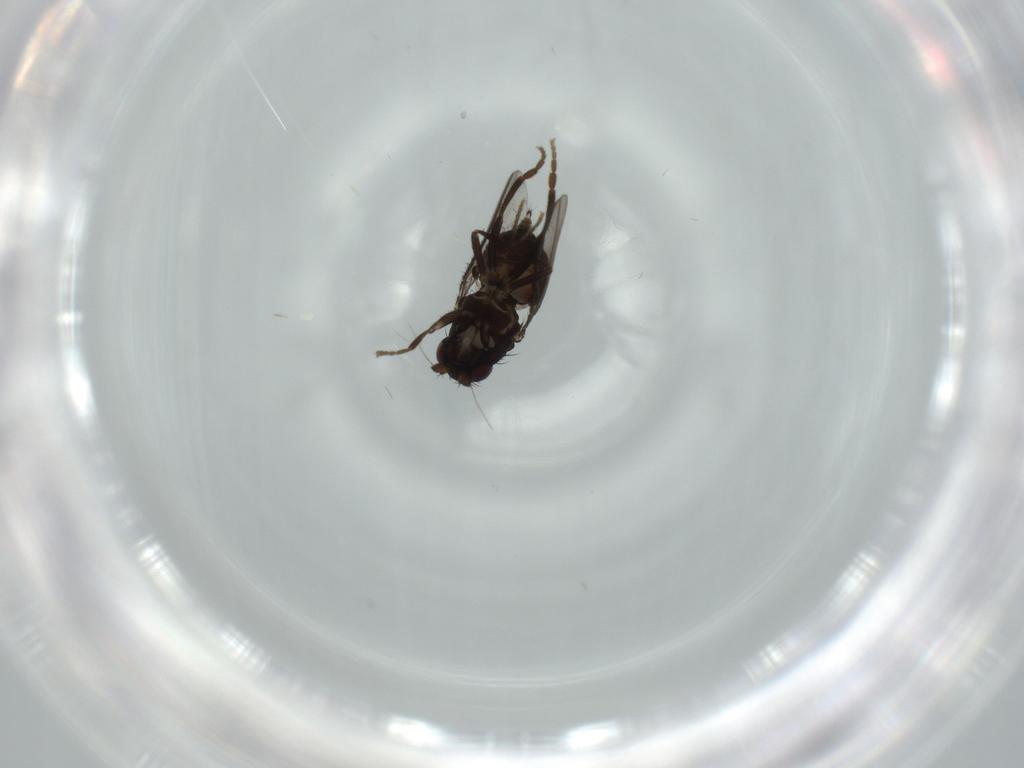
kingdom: Animalia
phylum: Arthropoda
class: Insecta
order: Diptera
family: Sphaeroceridae
